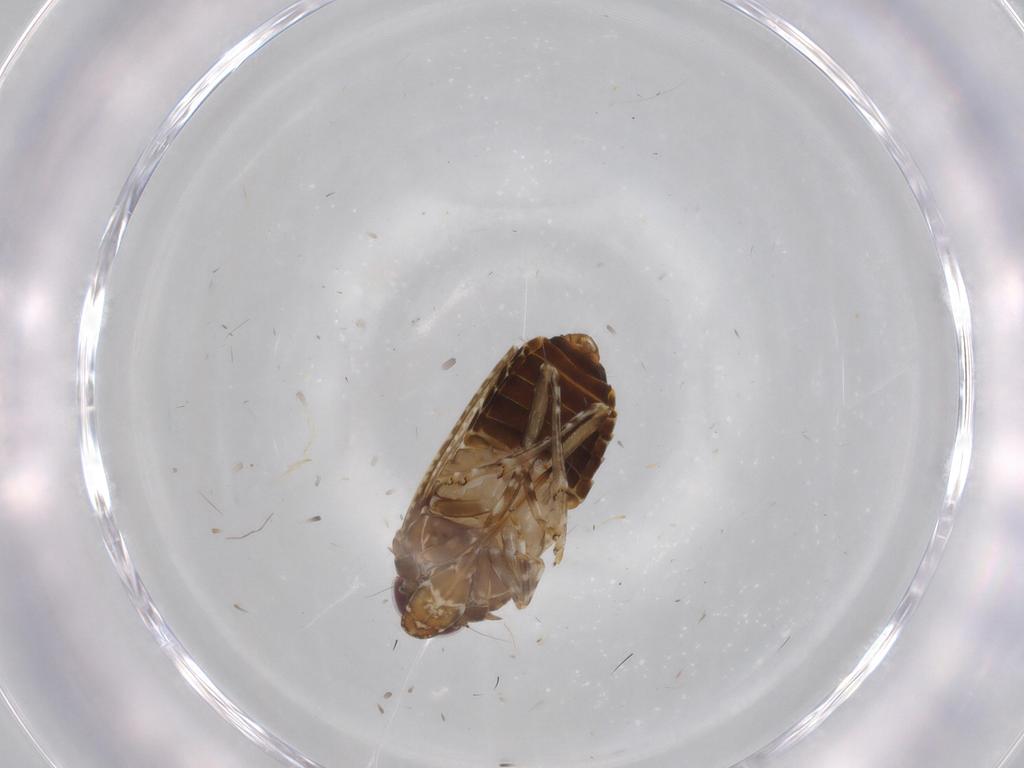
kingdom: Animalia
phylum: Arthropoda
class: Insecta
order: Psocodea
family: Ptiloneuridae
